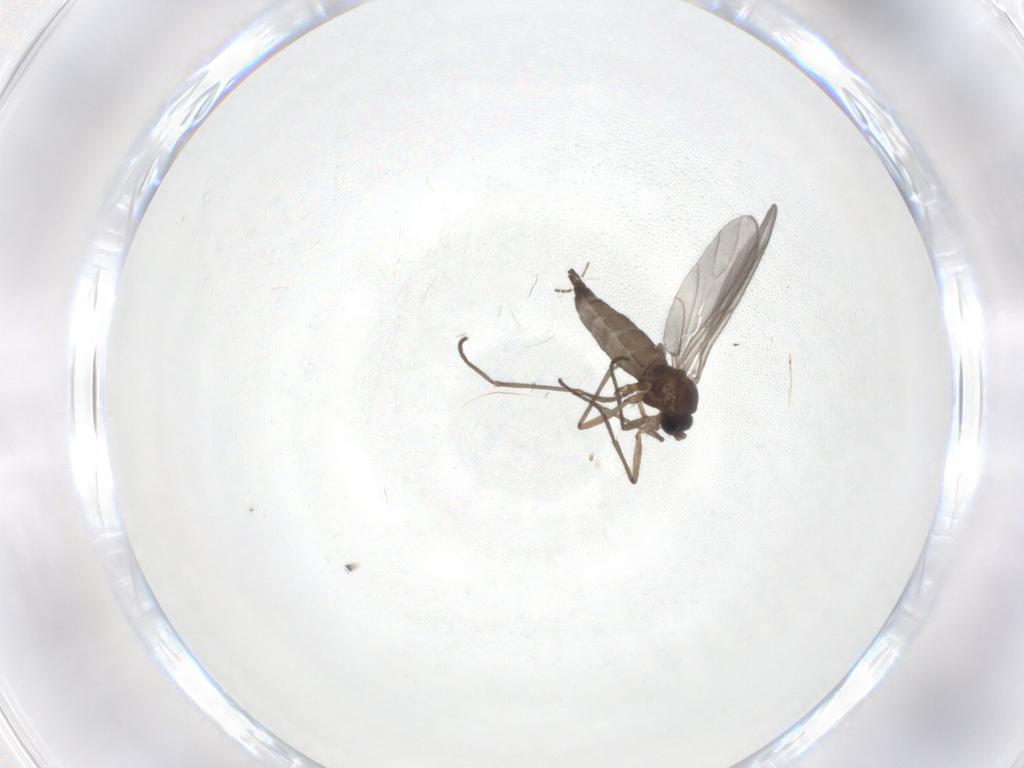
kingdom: Animalia
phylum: Arthropoda
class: Insecta
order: Diptera
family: Sciaridae
